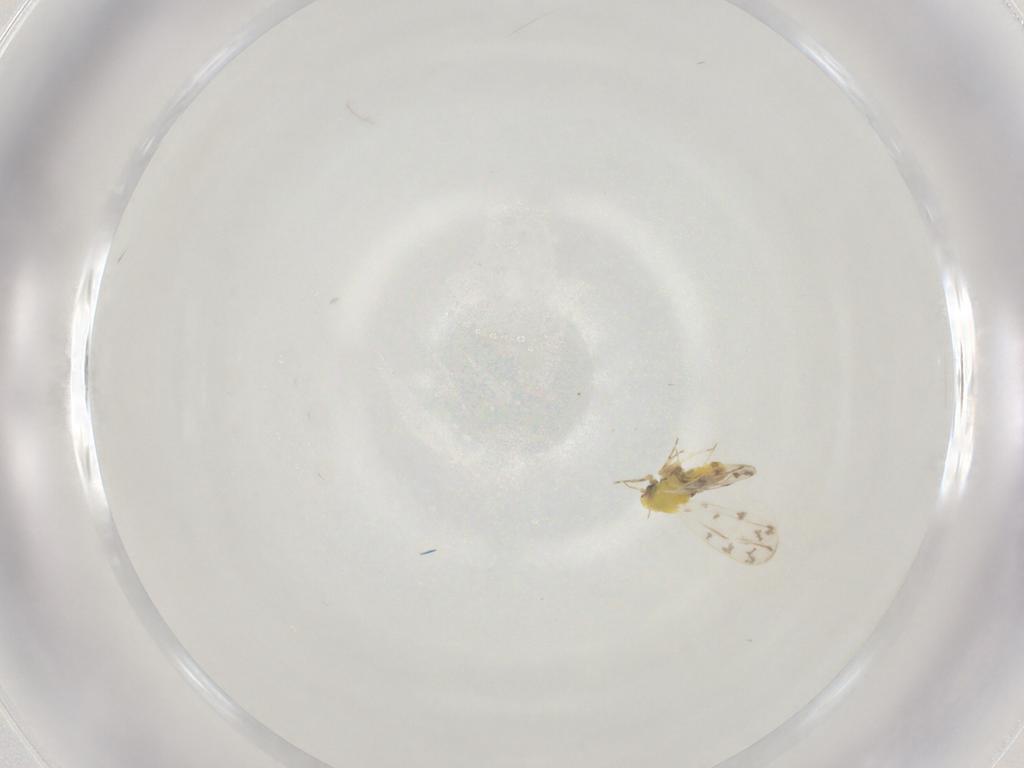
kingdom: Animalia
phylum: Arthropoda
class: Insecta
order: Hemiptera
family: Aleyrodidae
